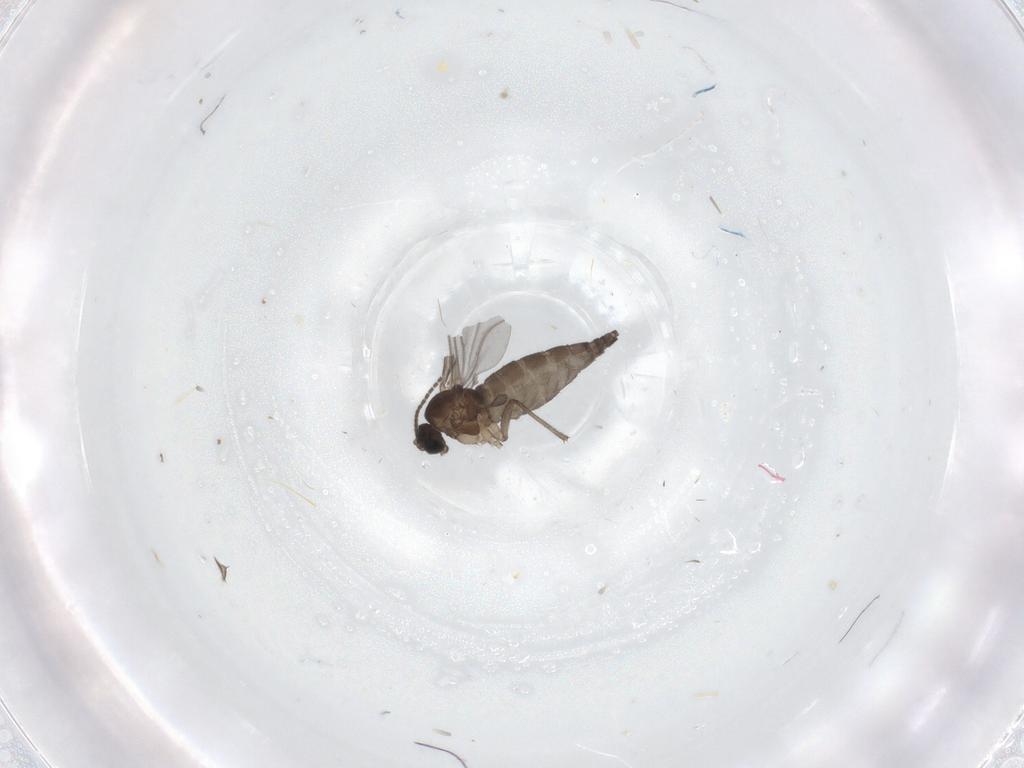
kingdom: Animalia
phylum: Arthropoda
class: Insecta
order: Diptera
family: Sciaridae
